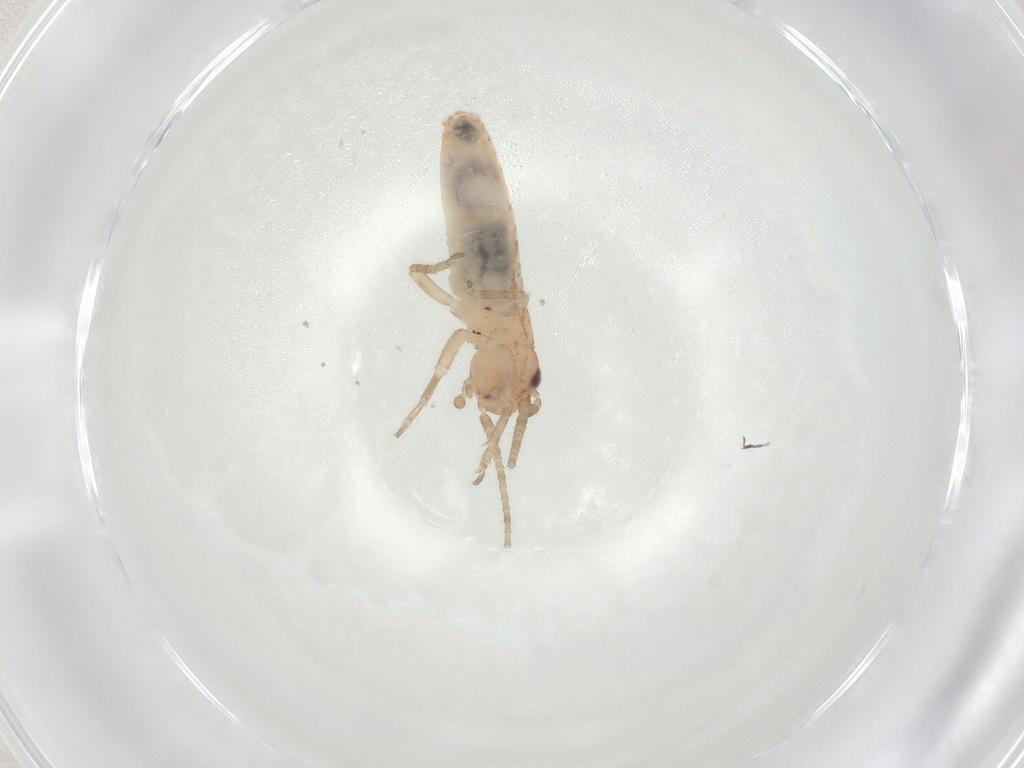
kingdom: Animalia
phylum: Arthropoda
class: Insecta
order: Orthoptera
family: Gryllidae
